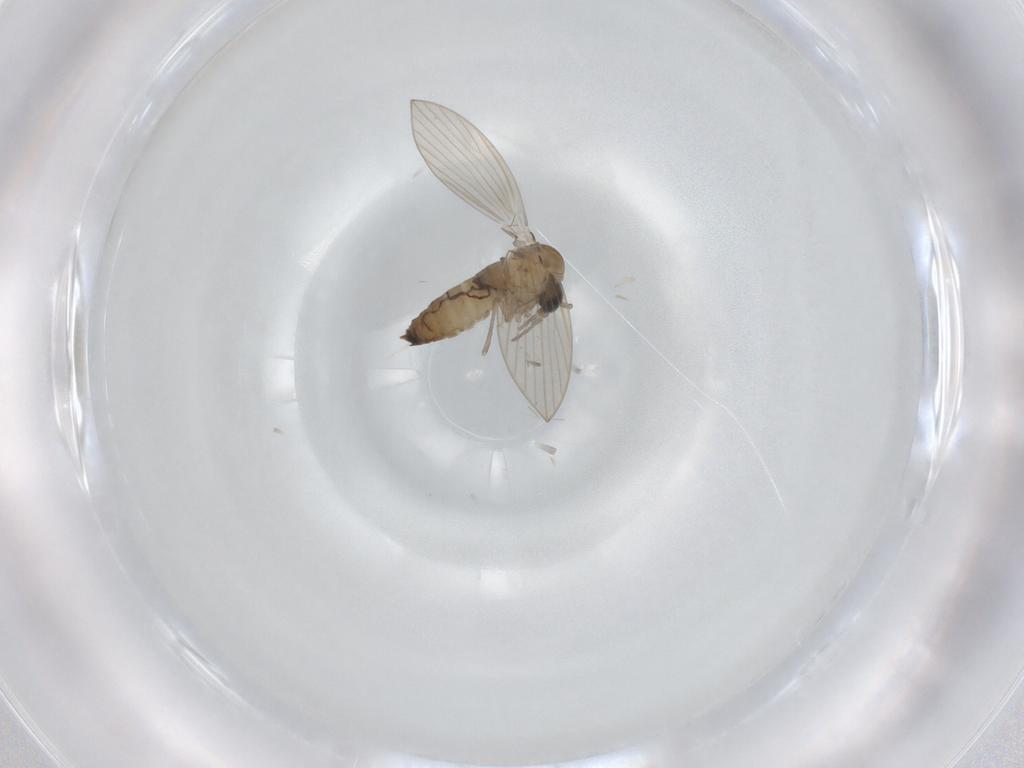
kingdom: Animalia
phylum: Arthropoda
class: Insecta
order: Diptera
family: Psychodidae
